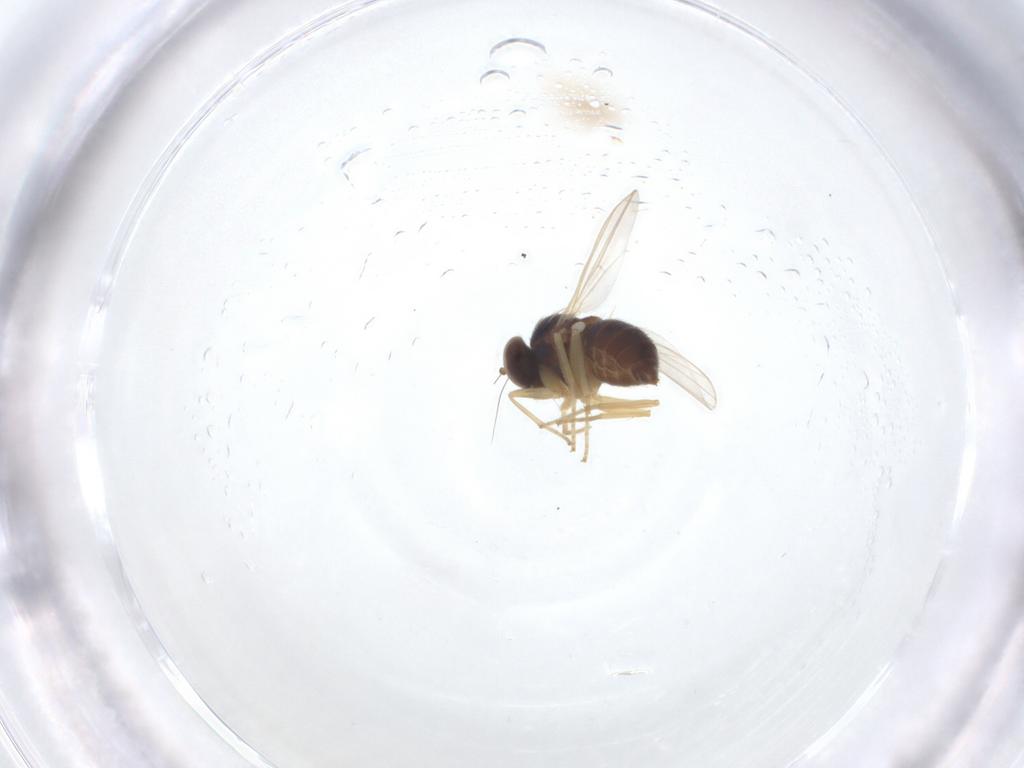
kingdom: Animalia
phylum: Arthropoda
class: Insecta
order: Diptera
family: Dolichopodidae
